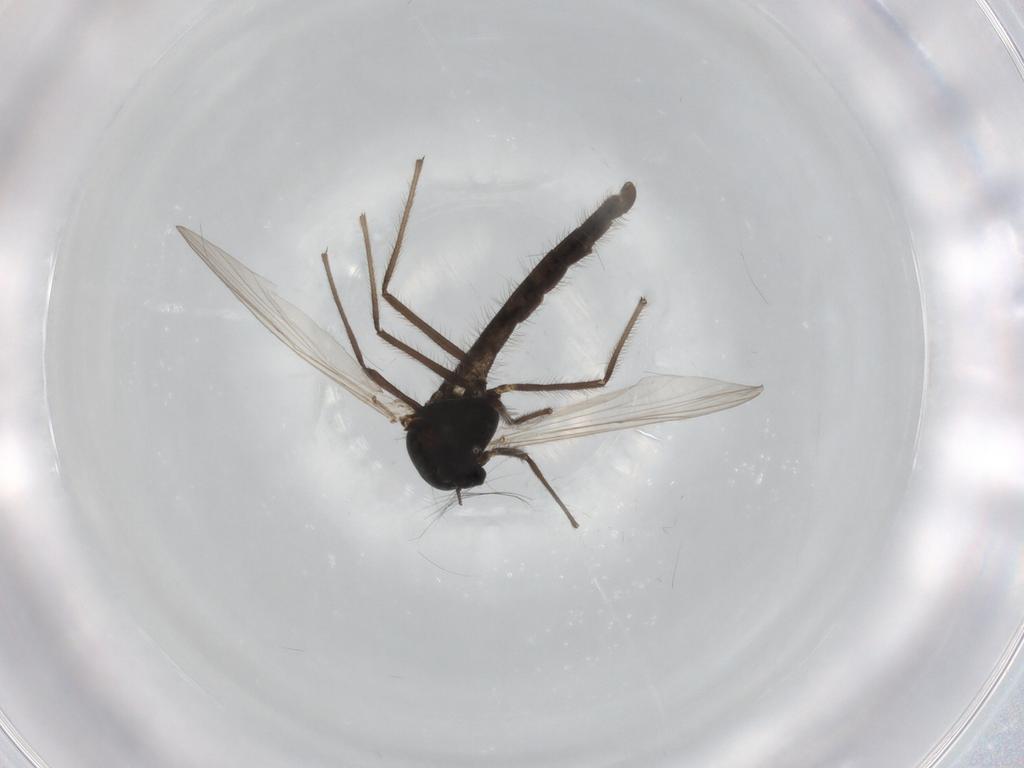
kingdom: Animalia
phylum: Arthropoda
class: Insecta
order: Diptera
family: Chironomidae
